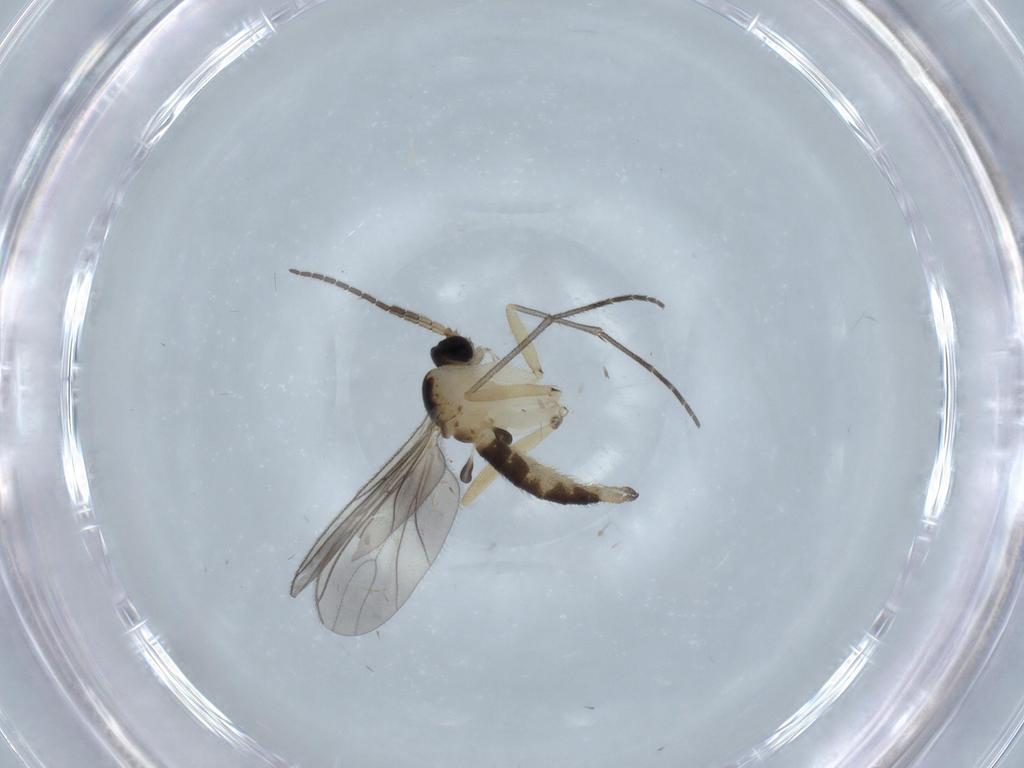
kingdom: Animalia
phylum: Arthropoda
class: Insecta
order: Diptera
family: Sciaridae
